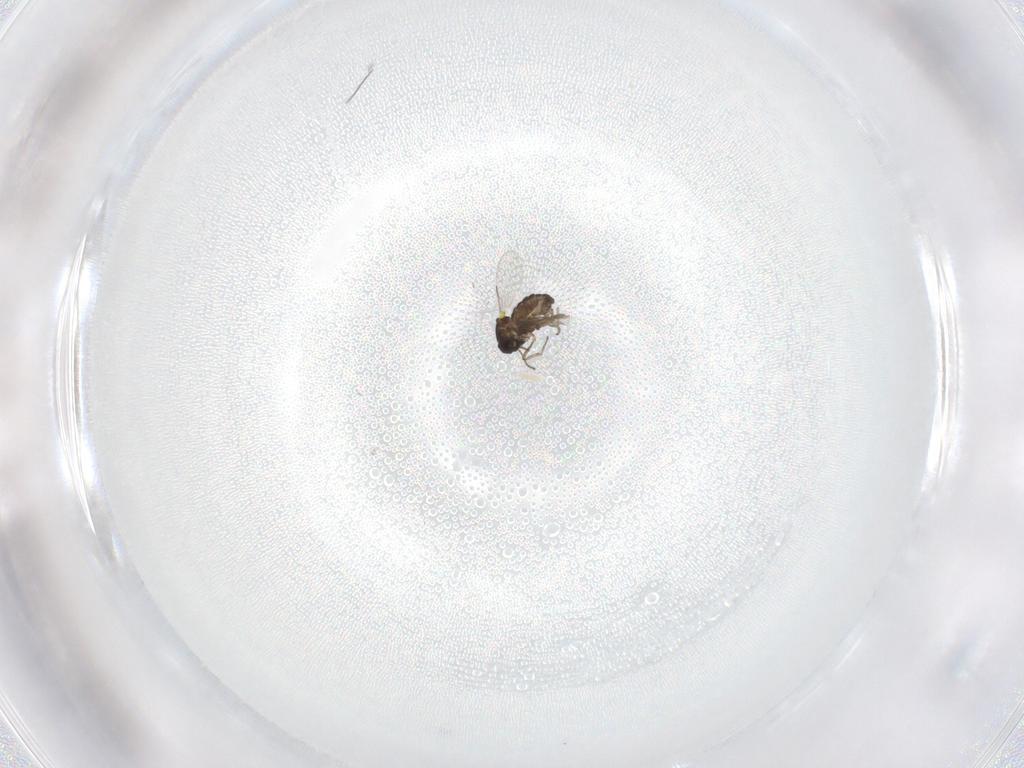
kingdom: Animalia
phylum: Arthropoda
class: Insecta
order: Diptera
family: Ceratopogonidae
